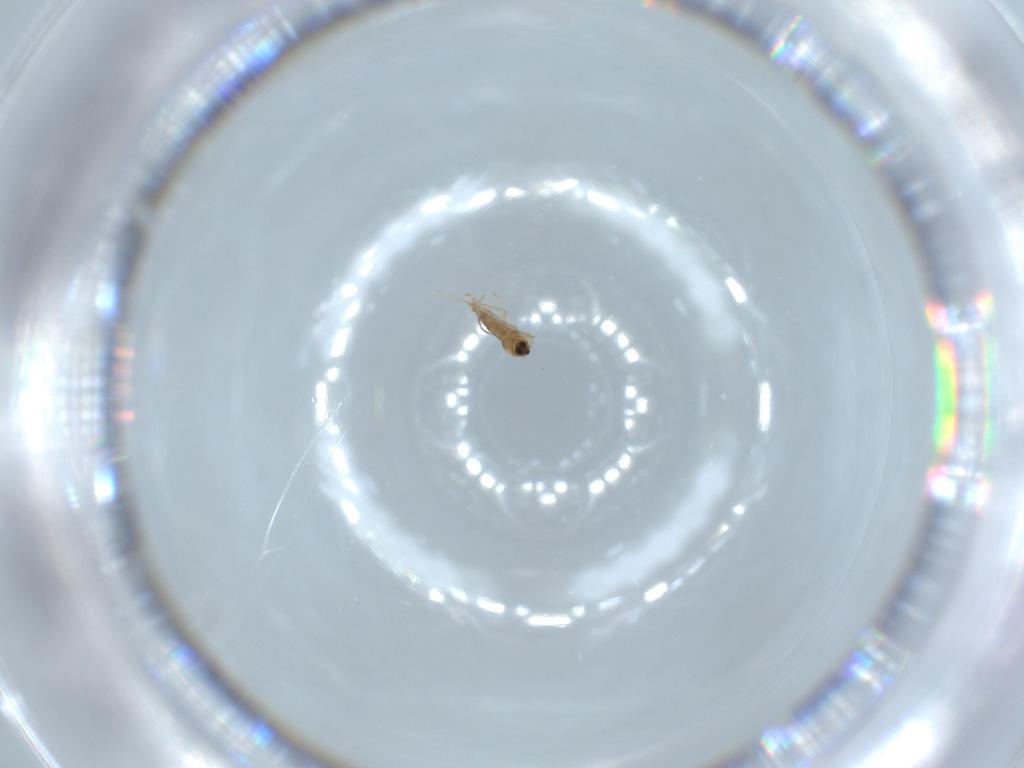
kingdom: Animalia
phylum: Arthropoda
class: Insecta
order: Diptera
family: Cecidomyiidae
